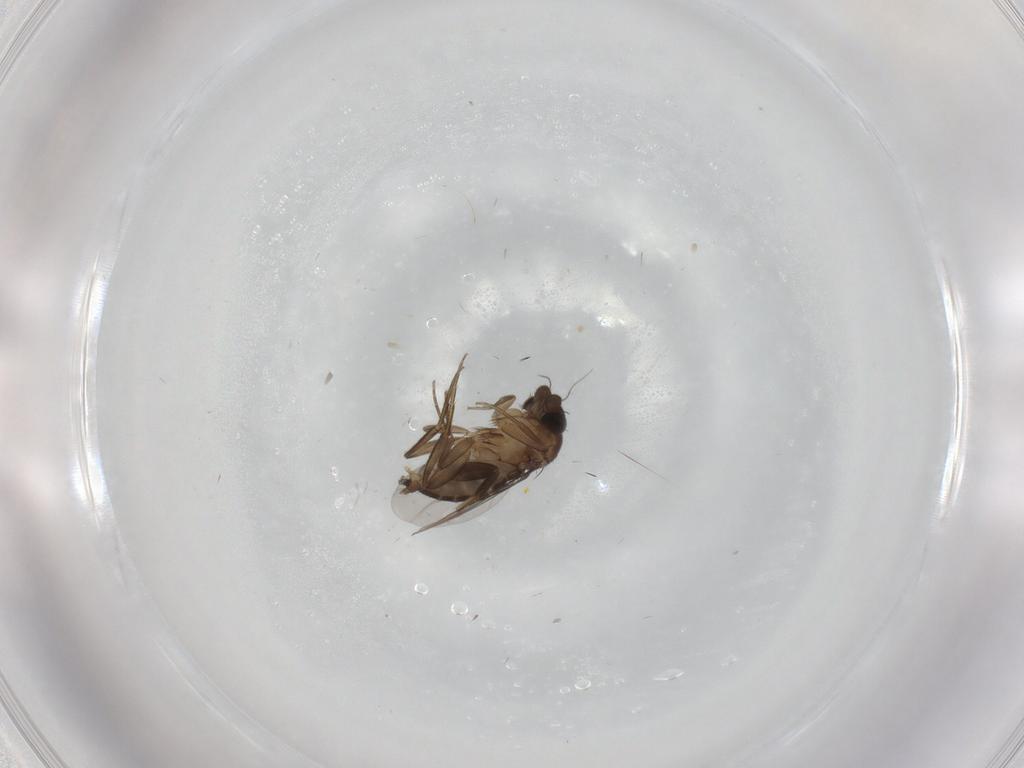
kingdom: Animalia
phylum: Arthropoda
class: Insecta
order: Diptera
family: Phoridae
